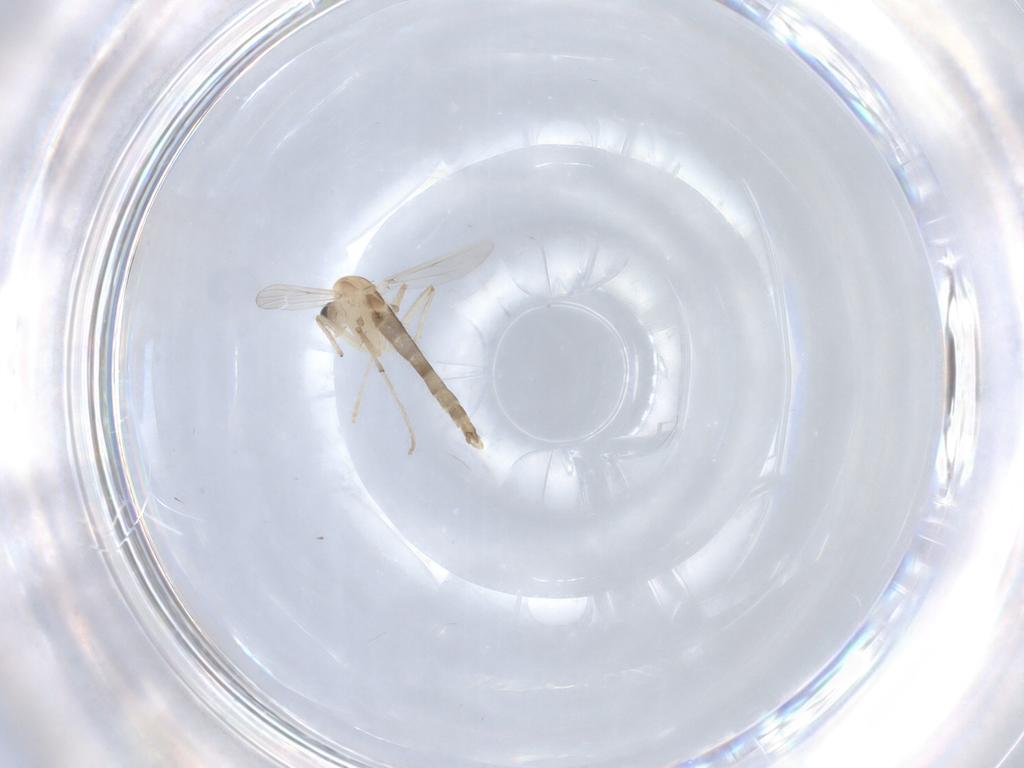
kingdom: Animalia
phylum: Arthropoda
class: Insecta
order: Diptera
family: Chironomidae
